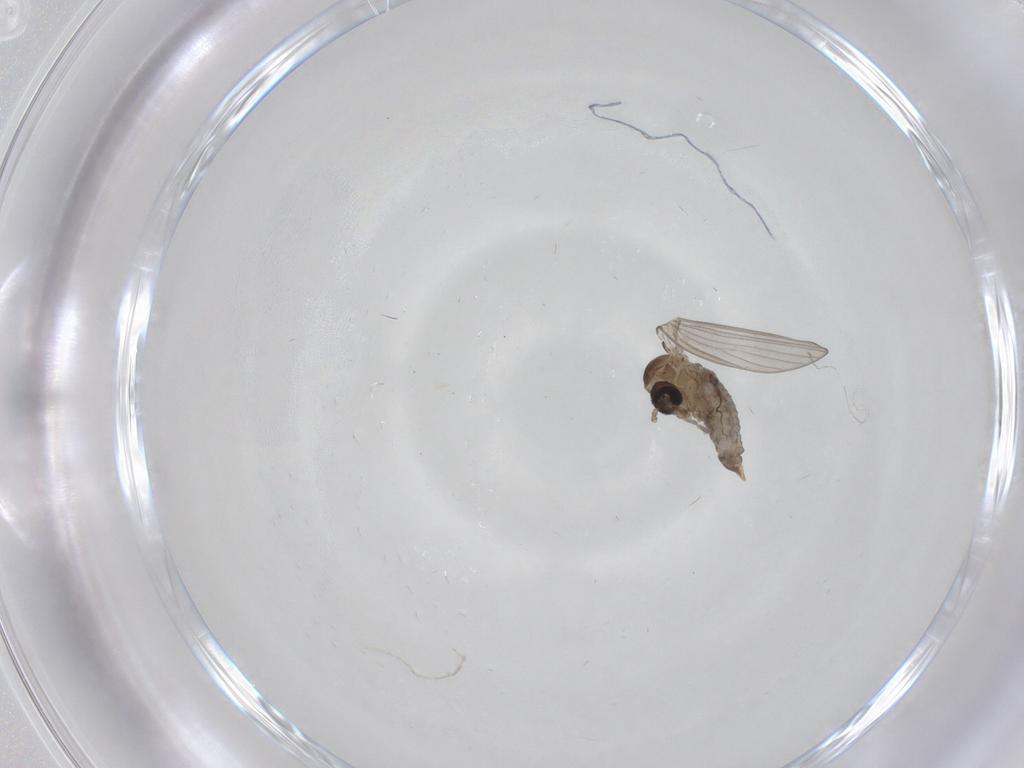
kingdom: Animalia
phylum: Arthropoda
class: Insecta
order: Diptera
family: Psychodidae
